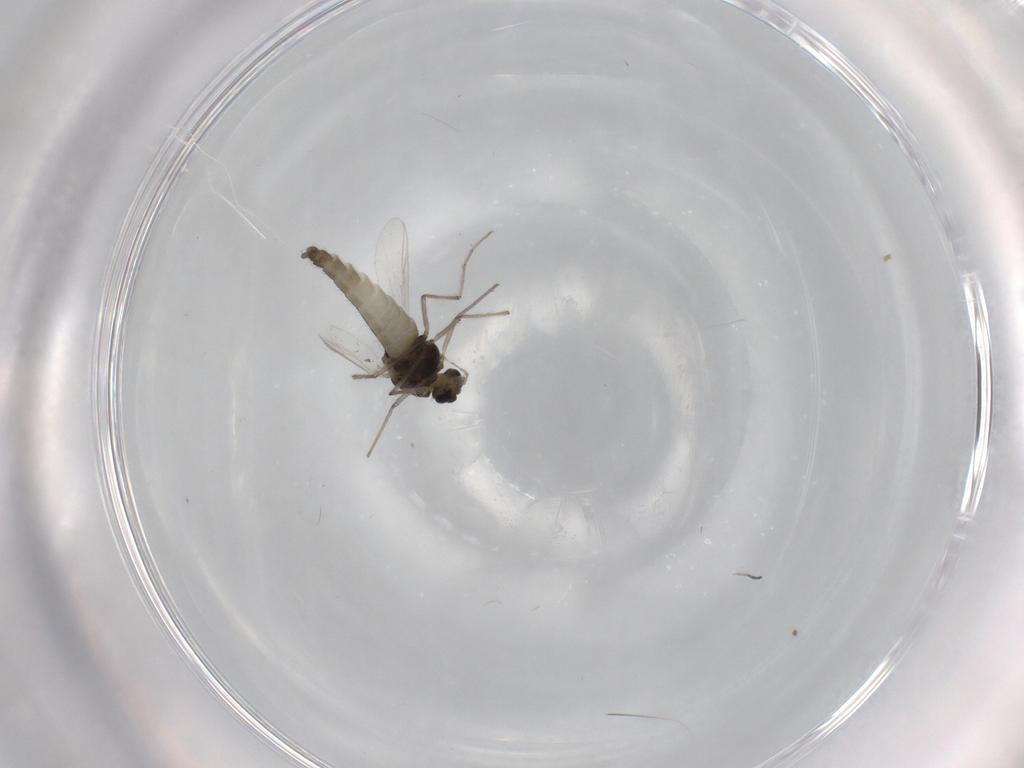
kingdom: Animalia
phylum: Arthropoda
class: Insecta
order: Diptera
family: Chironomidae
